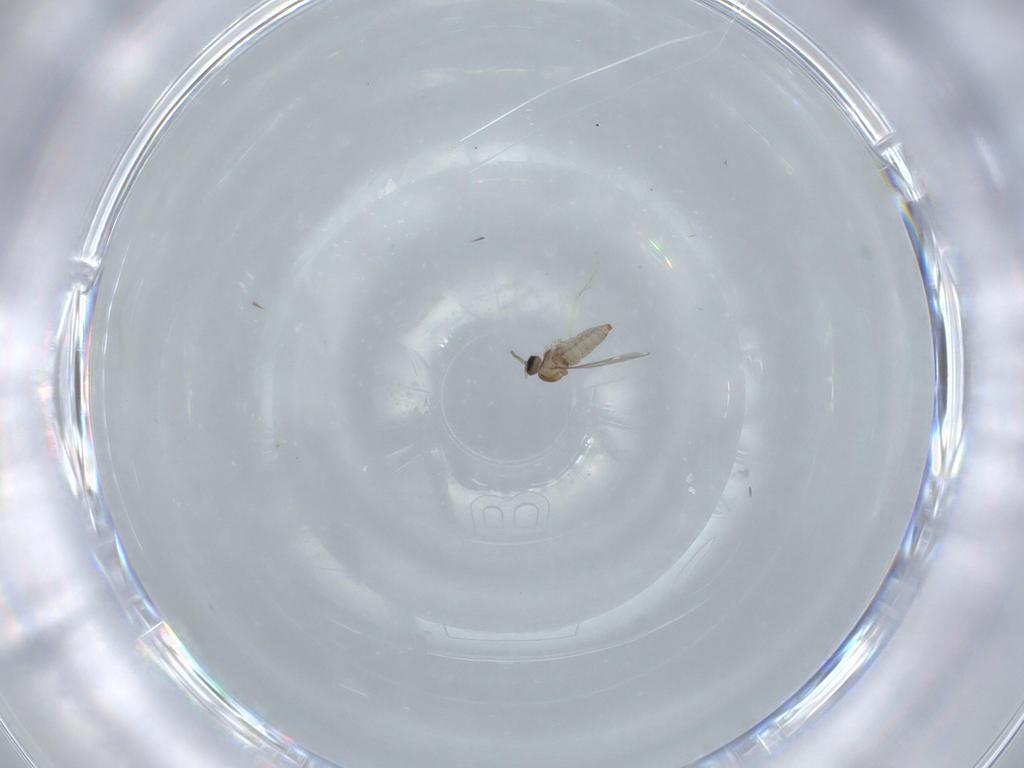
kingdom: Animalia
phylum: Arthropoda
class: Insecta
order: Diptera
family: Cecidomyiidae
